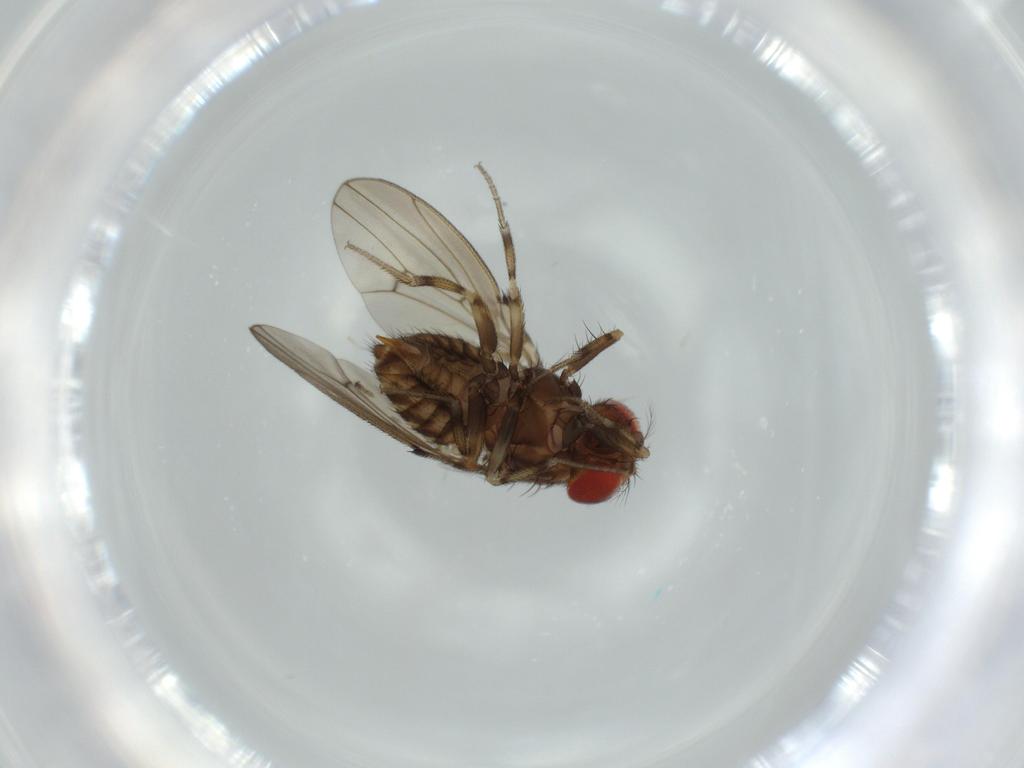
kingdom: Animalia
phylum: Arthropoda
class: Insecta
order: Diptera
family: Drosophilidae
